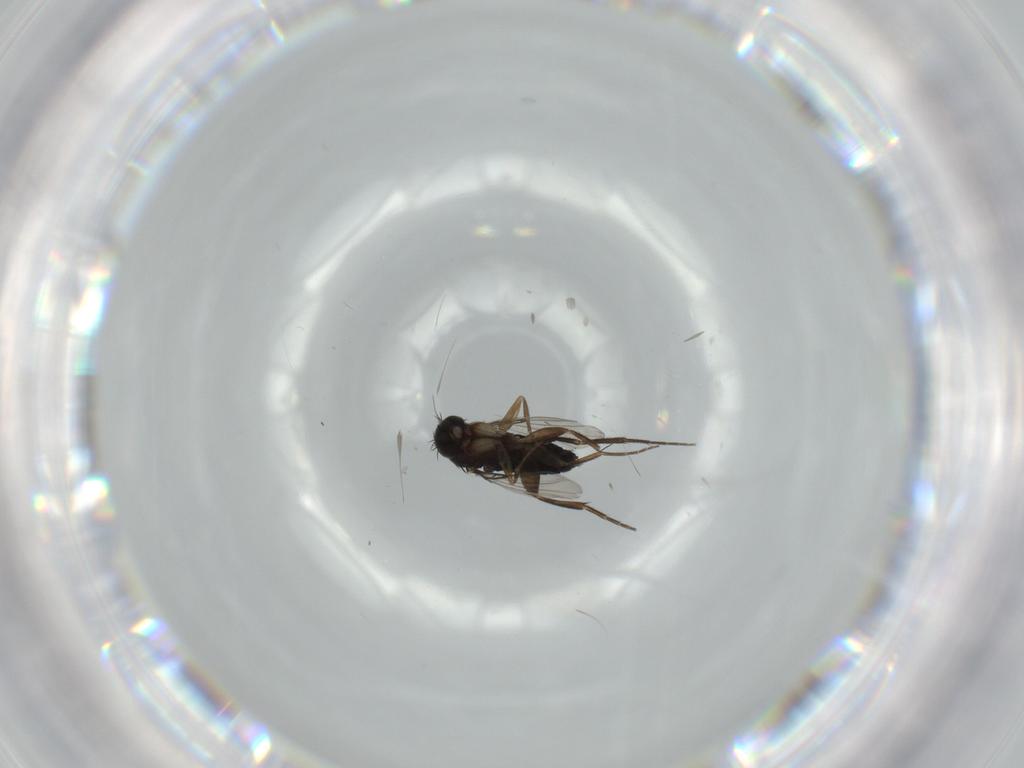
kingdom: Animalia
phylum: Arthropoda
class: Insecta
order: Diptera
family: Phoridae
